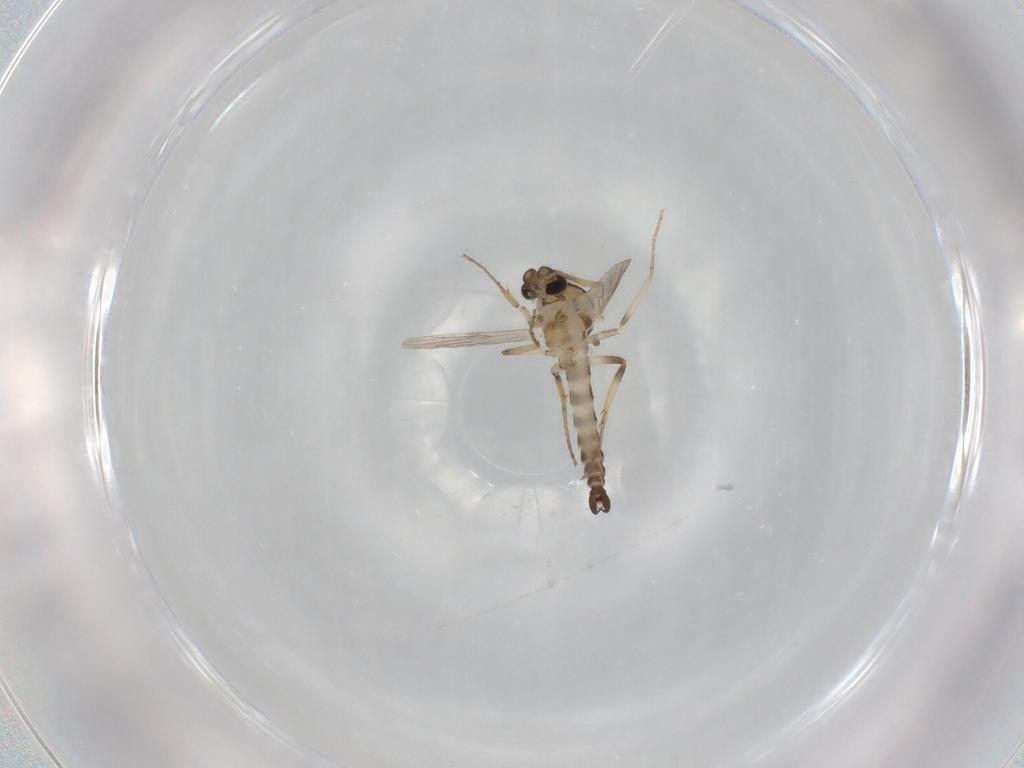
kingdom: Animalia
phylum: Arthropoda
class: Insecta
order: Diptera
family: Ceratopogonidae
